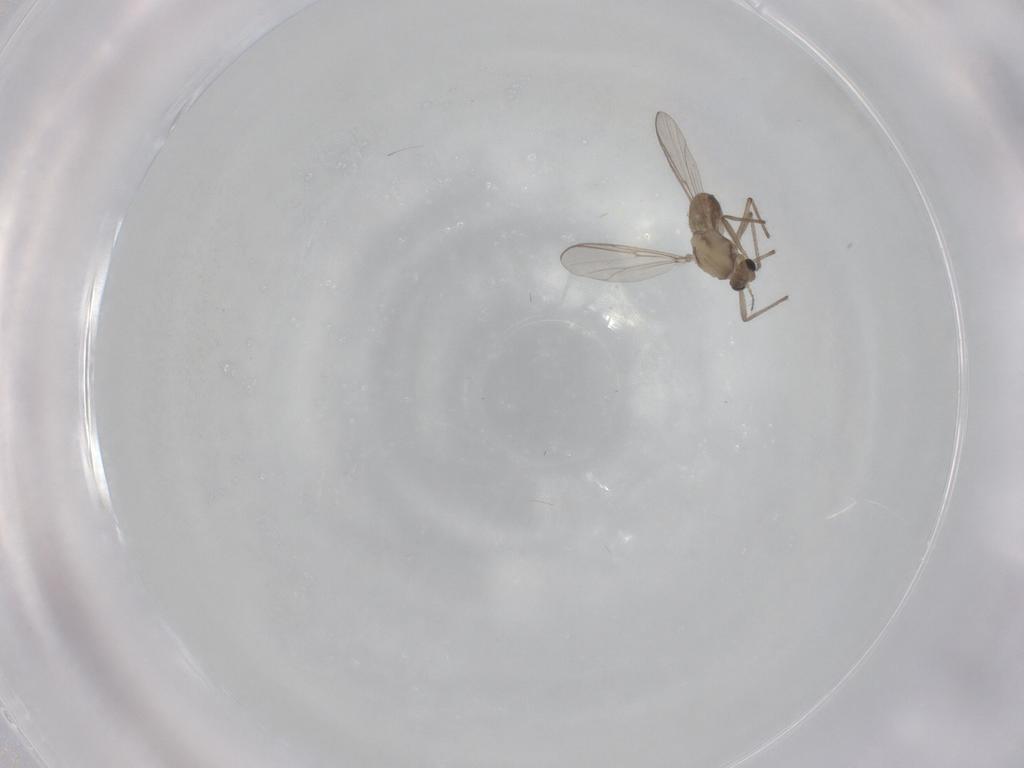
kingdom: Animalia
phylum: Arthropoda
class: Insecta
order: Diptera
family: Chironomidae
